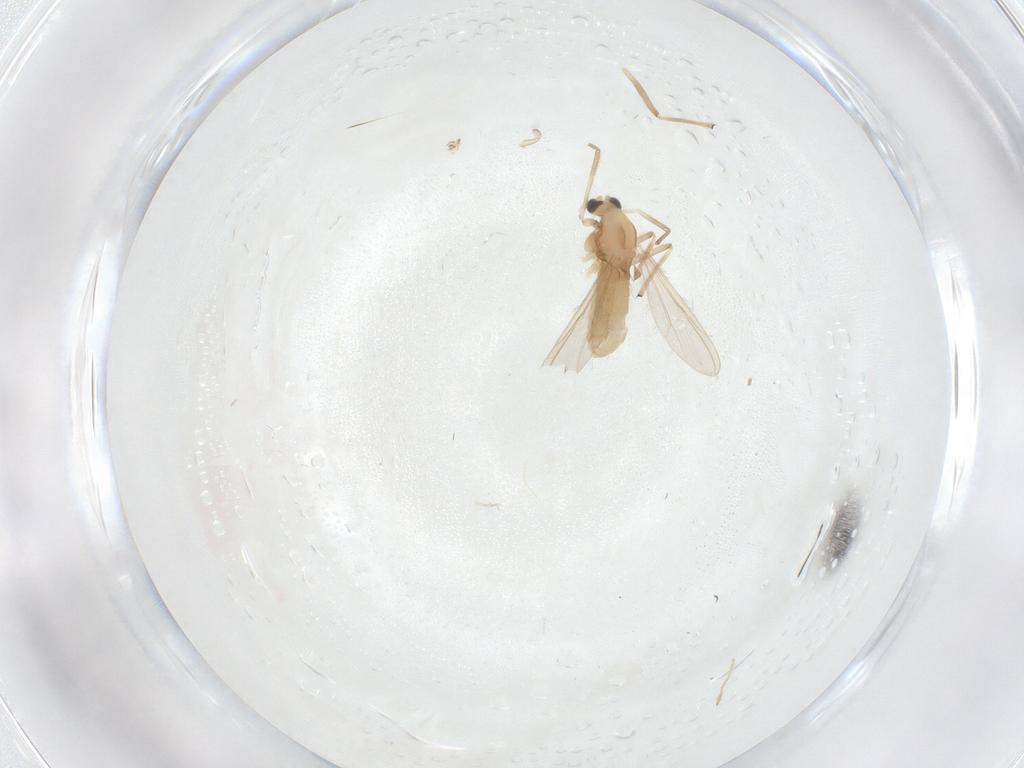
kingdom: Animalia
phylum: Arthropoda
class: Insecta
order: Diptera
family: Chironomidae
